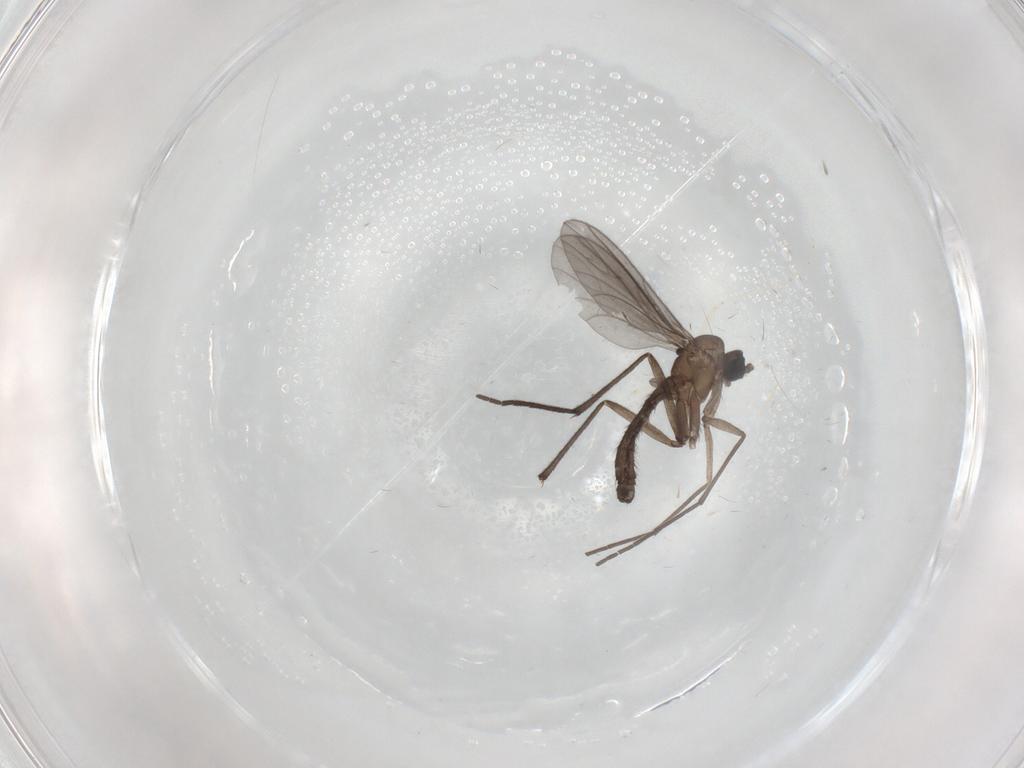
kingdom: Animalia
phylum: Arthropoda
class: Insecta
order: Diptera
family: Cecidomyiidae
